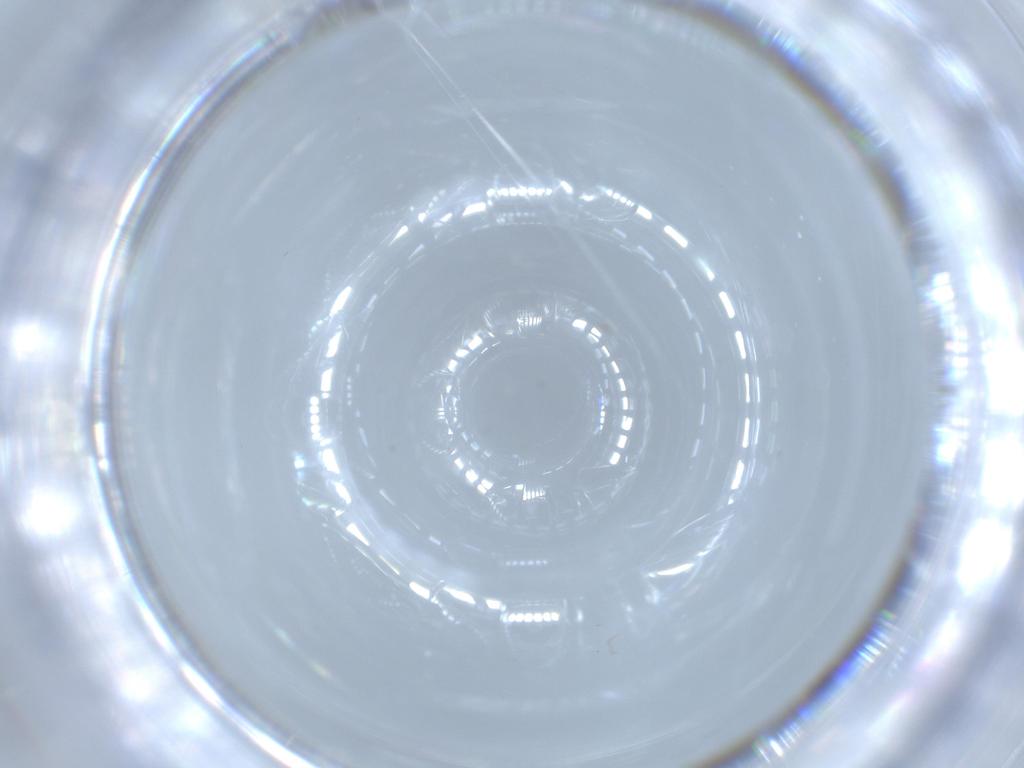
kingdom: Animalia
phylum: Arthropoda
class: Insecta
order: Diptera
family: Cecidomyiidae
